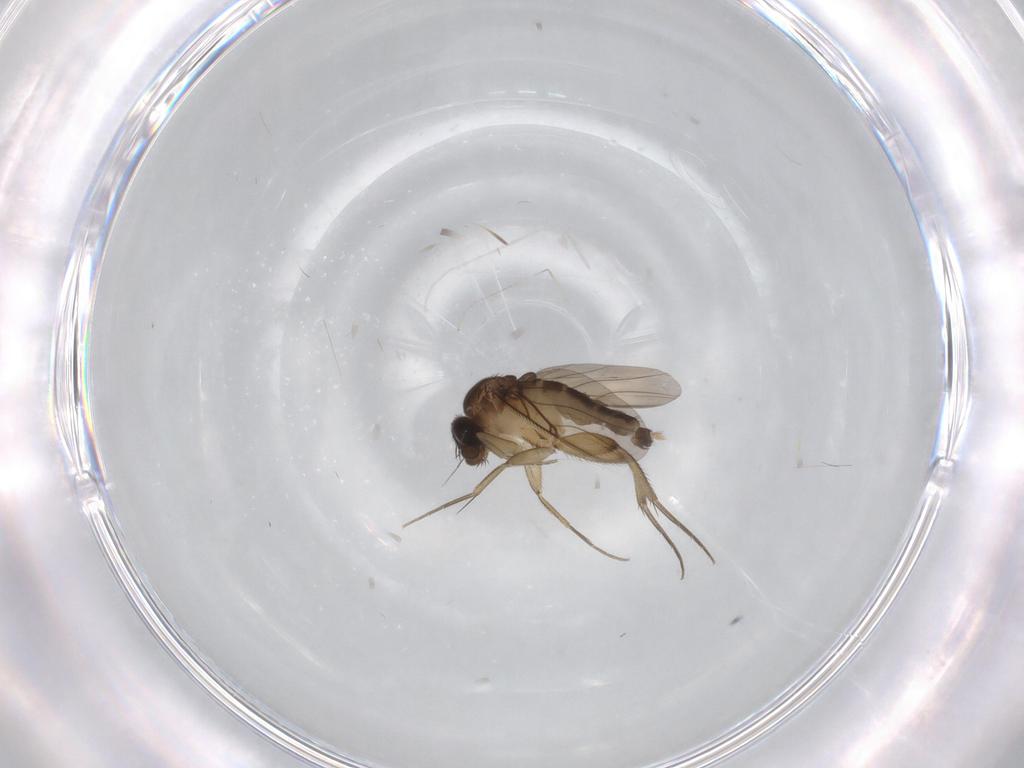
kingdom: Animalia
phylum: Arthropoda
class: Insecta
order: Diptera
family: Phoridae
